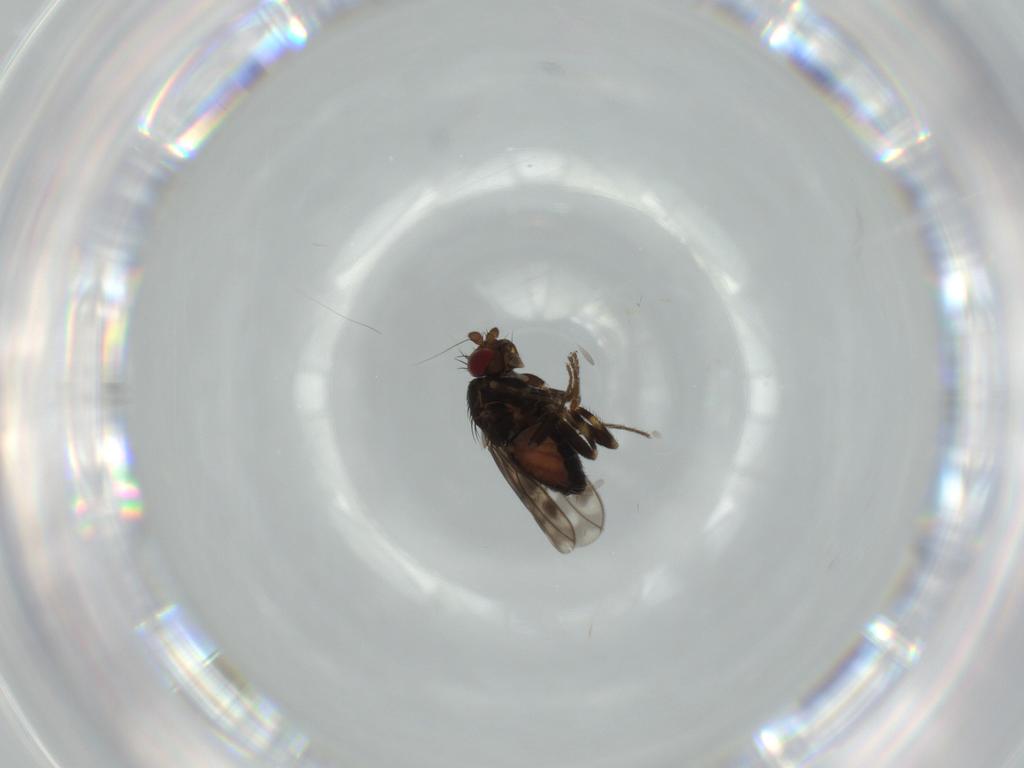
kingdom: Animalia
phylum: Arthropoda
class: Insecta
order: Diptera
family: Sphaeroceridae
